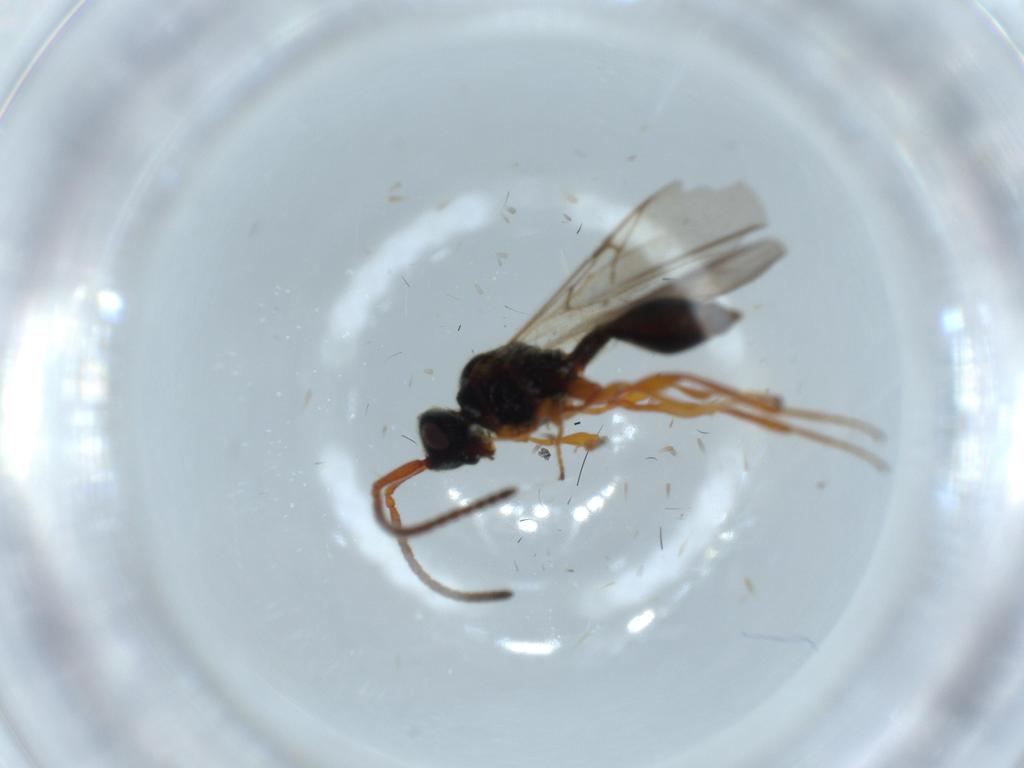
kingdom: Animalia
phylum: Arthropoda
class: Insecta
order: Hymenoptera
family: Diapriidae
